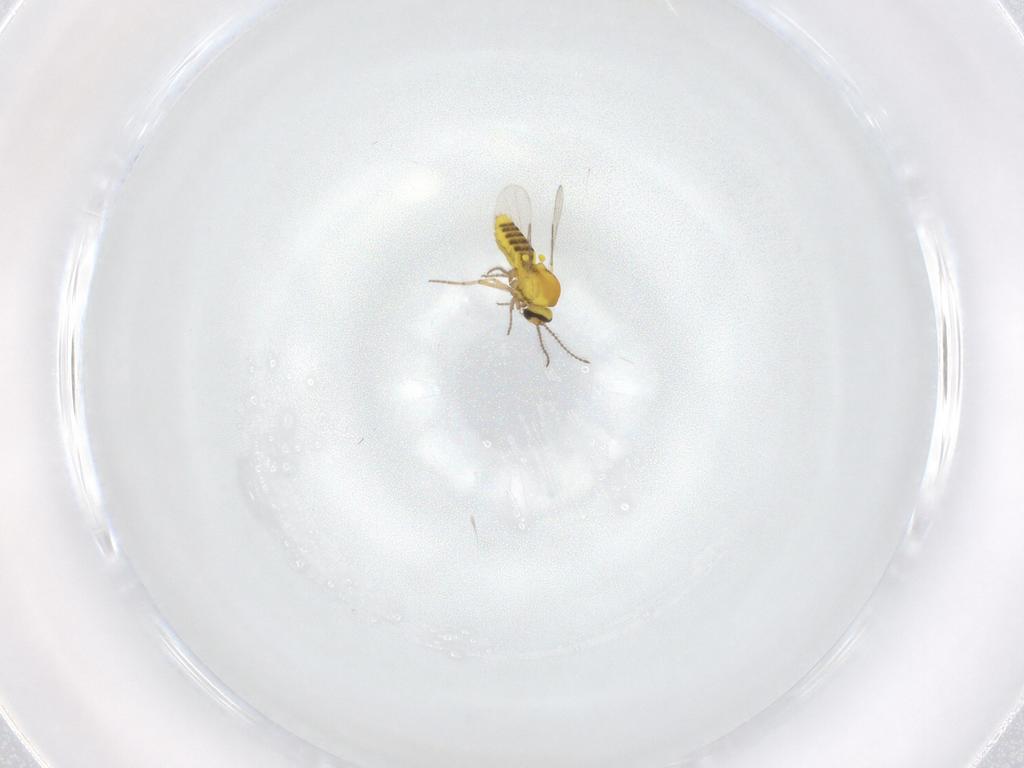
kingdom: Animalia
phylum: Arthropoda
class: Insecta
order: Diptera
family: Ceratopogonidae
